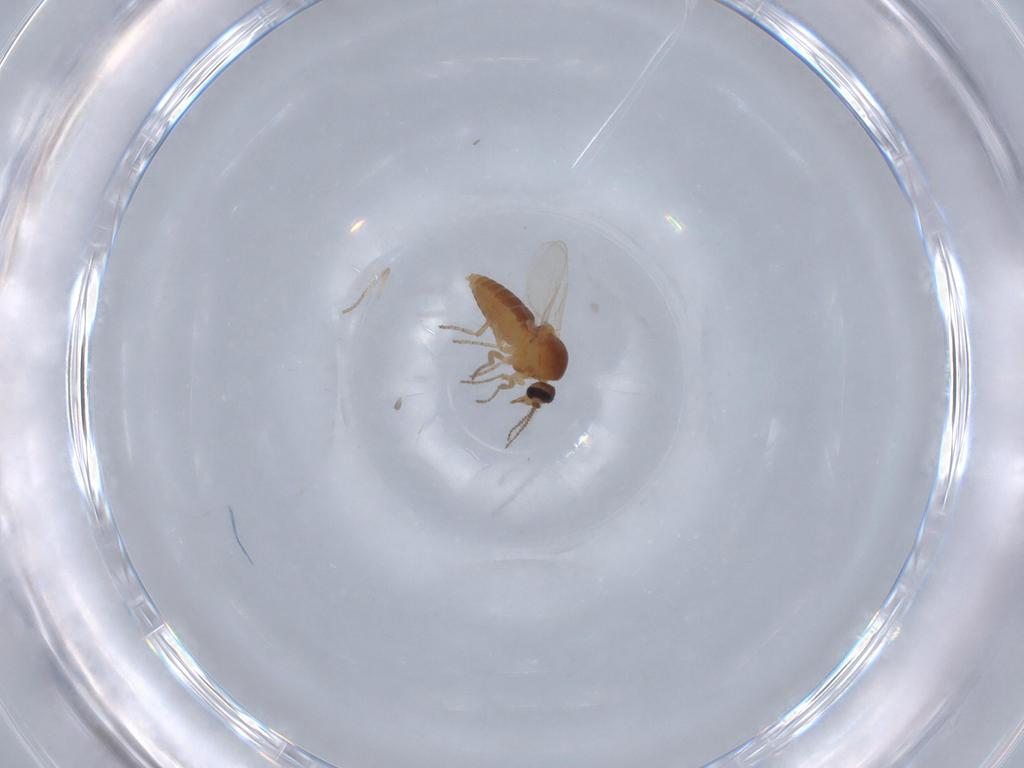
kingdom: Animalia
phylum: Arthropoda
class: Insecta
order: Diptera
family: Ceratopogonidae
